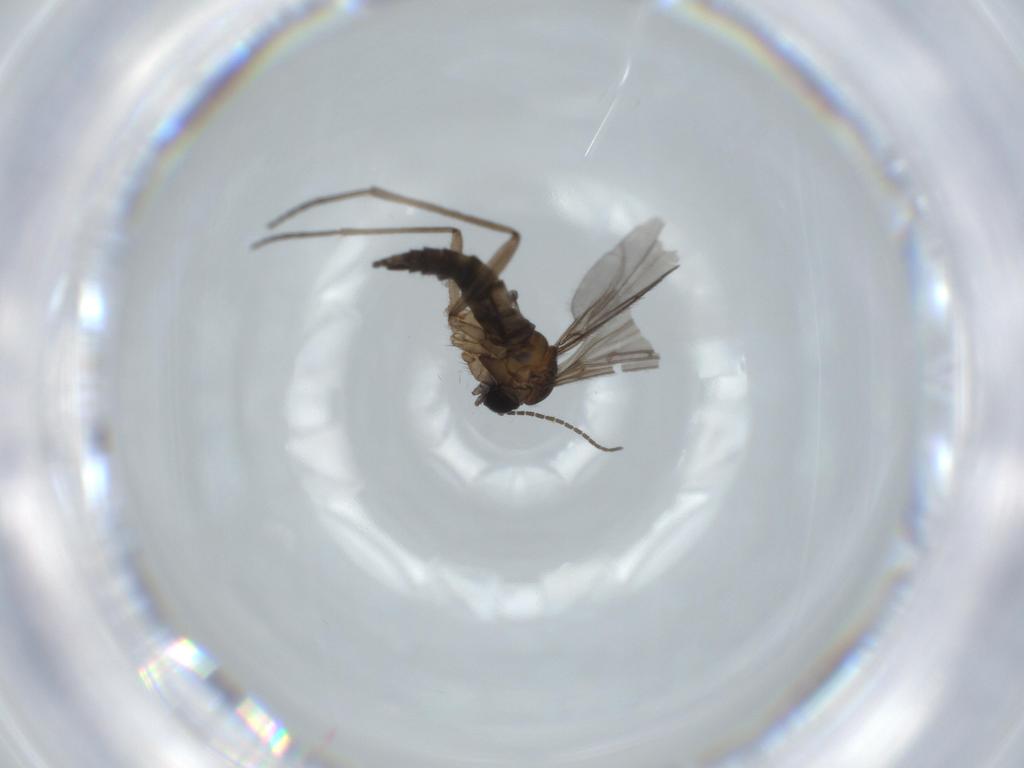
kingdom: Animalia
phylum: Arthropoda
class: Insecta
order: Diptera
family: Sciaridae
